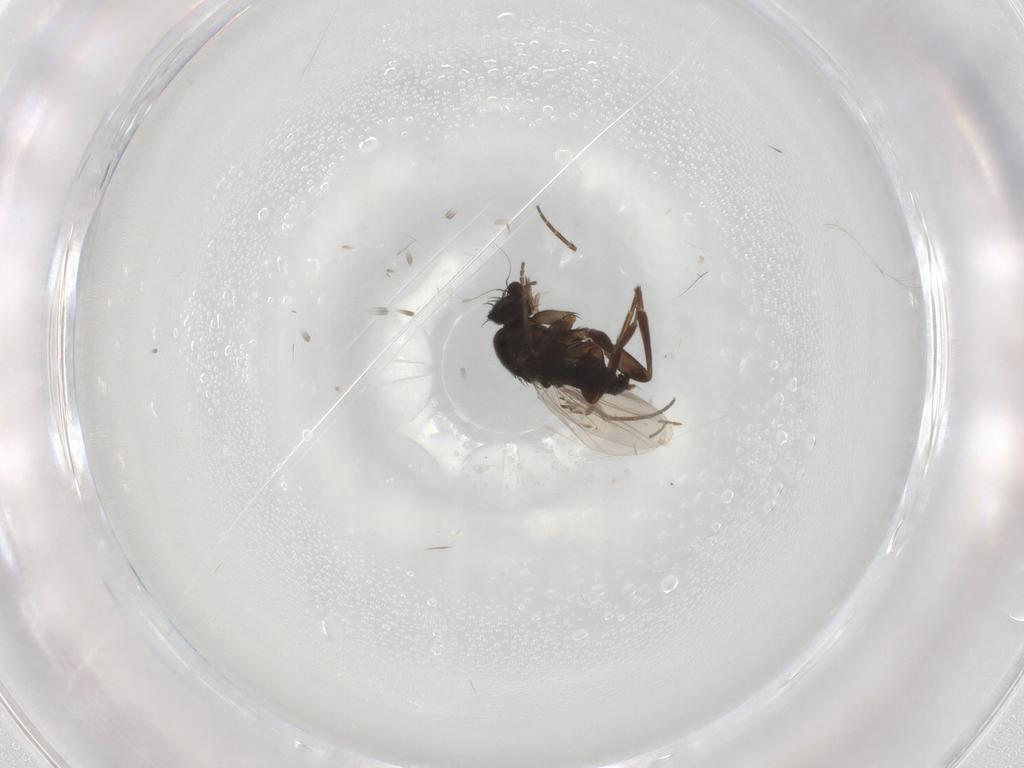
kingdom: Animalia
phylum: Arthropoda
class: Insecta
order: Diptera
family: Phoridae
